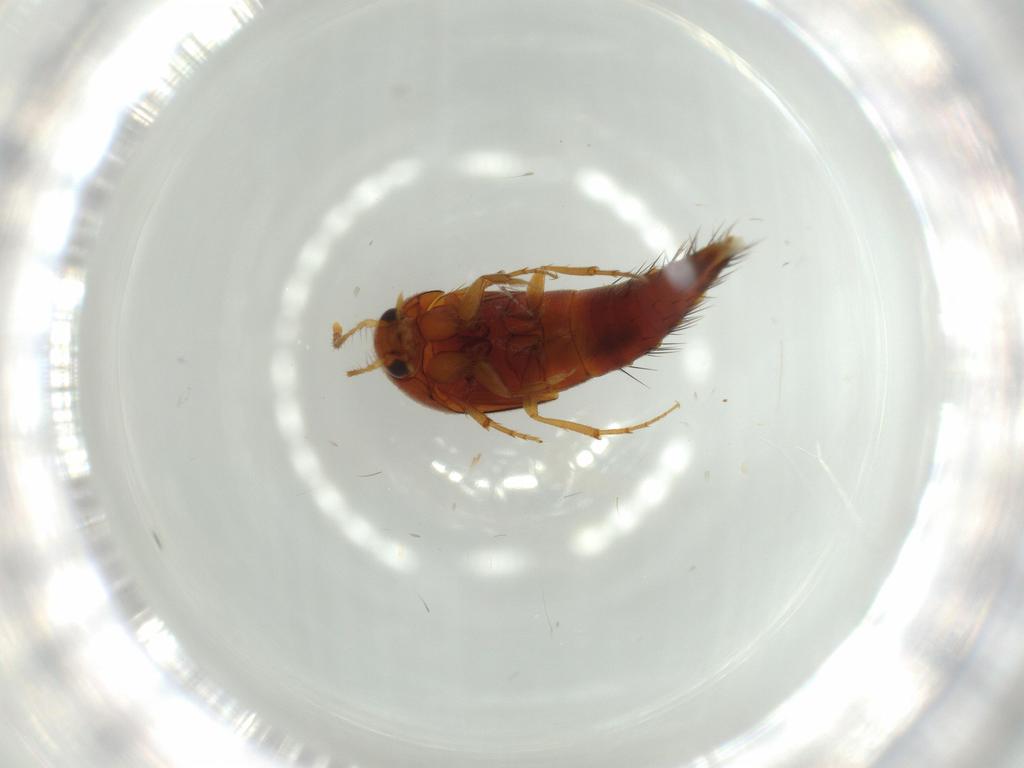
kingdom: Animalia
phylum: Arthropoda
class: Insecta
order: Coleoptera
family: Staphylinidae
